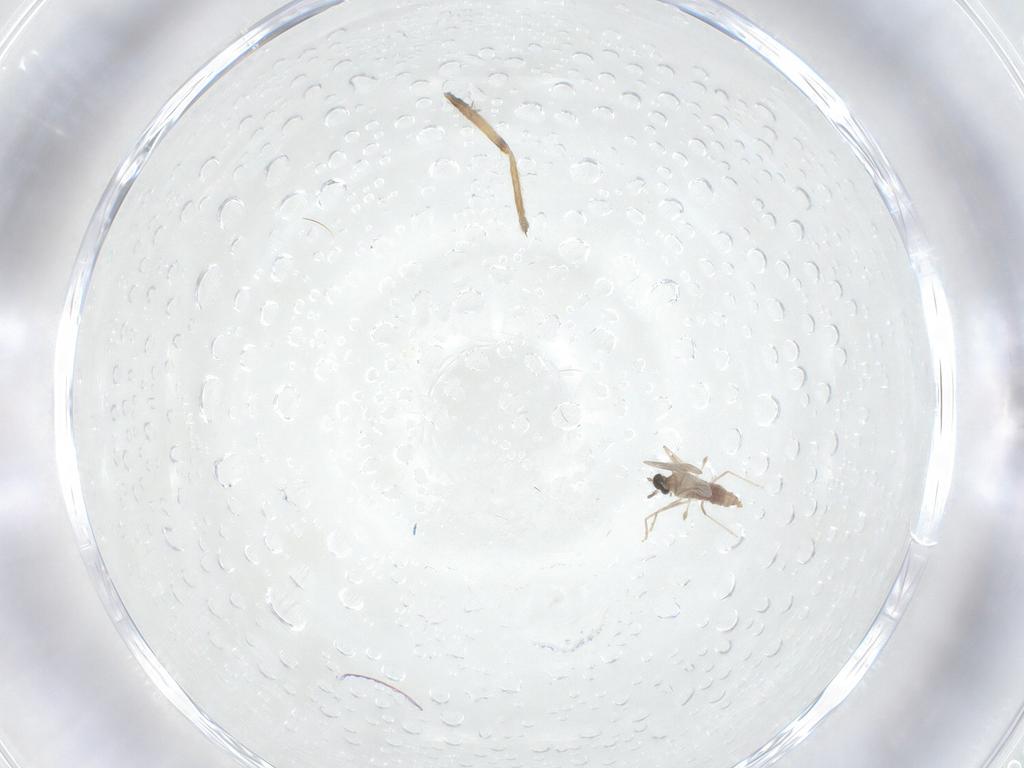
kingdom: Animalia
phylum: Arthropoda
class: Insecta
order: Diptera
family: Cecidomyiidae
